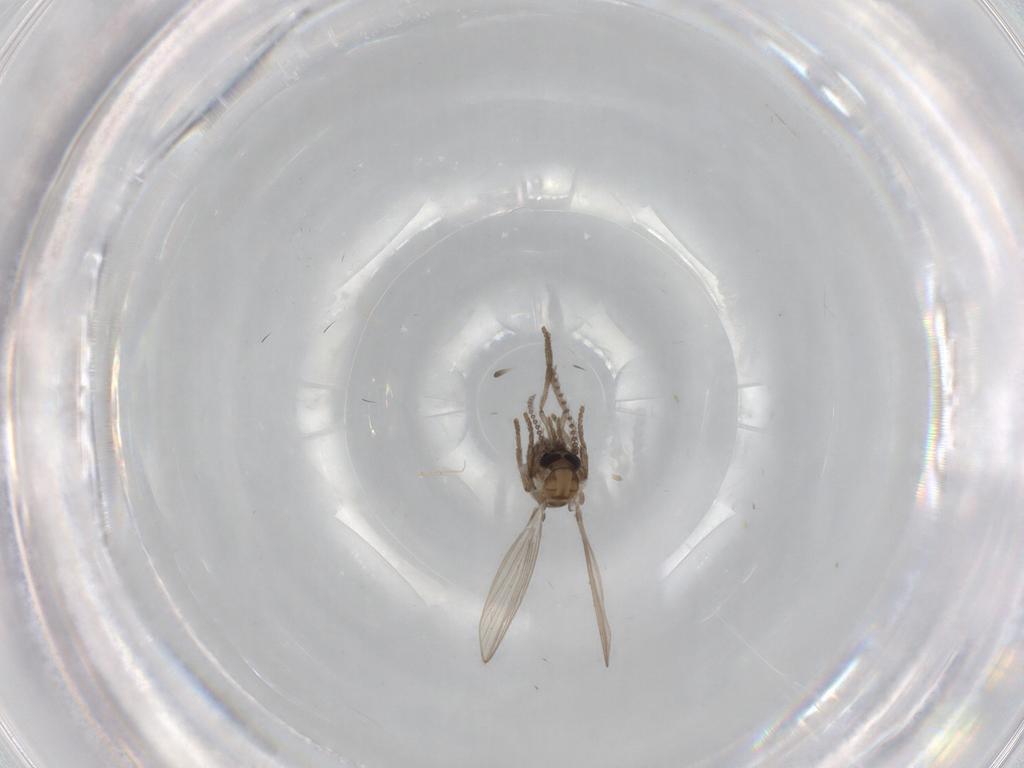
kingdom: Animalia
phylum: Arthropoda
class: Insecta
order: Diptera
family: Psychodidae
